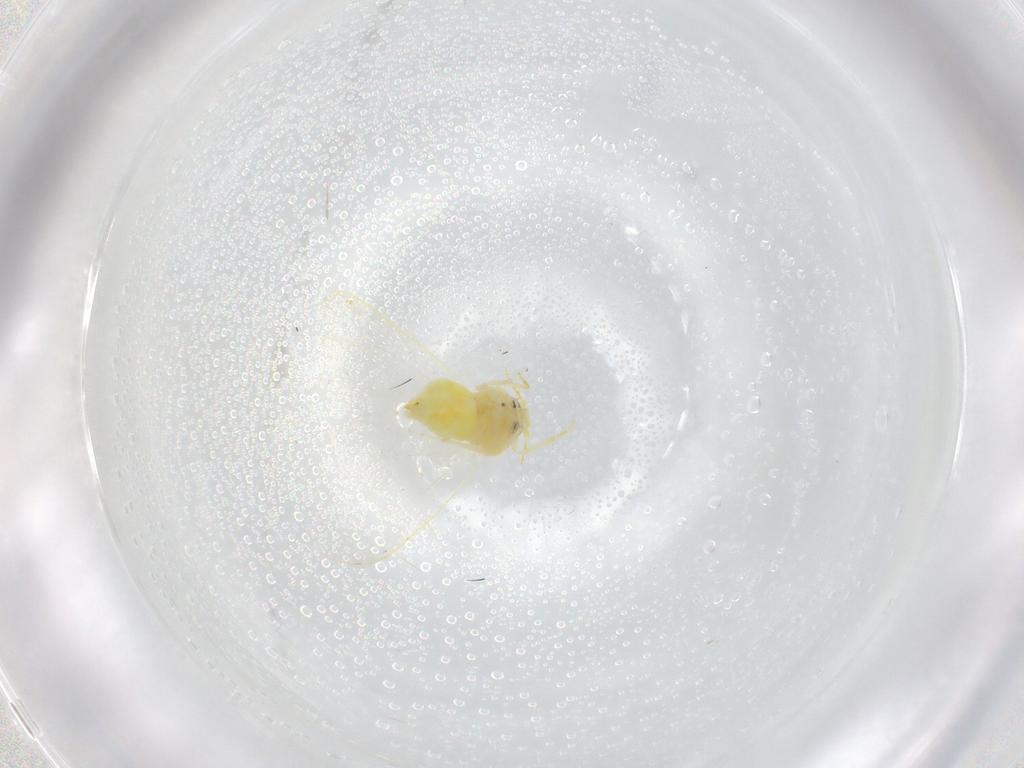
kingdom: Animalia
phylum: Arthropoda
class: Insecta
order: Hemiptera
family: Aleyrodidae
